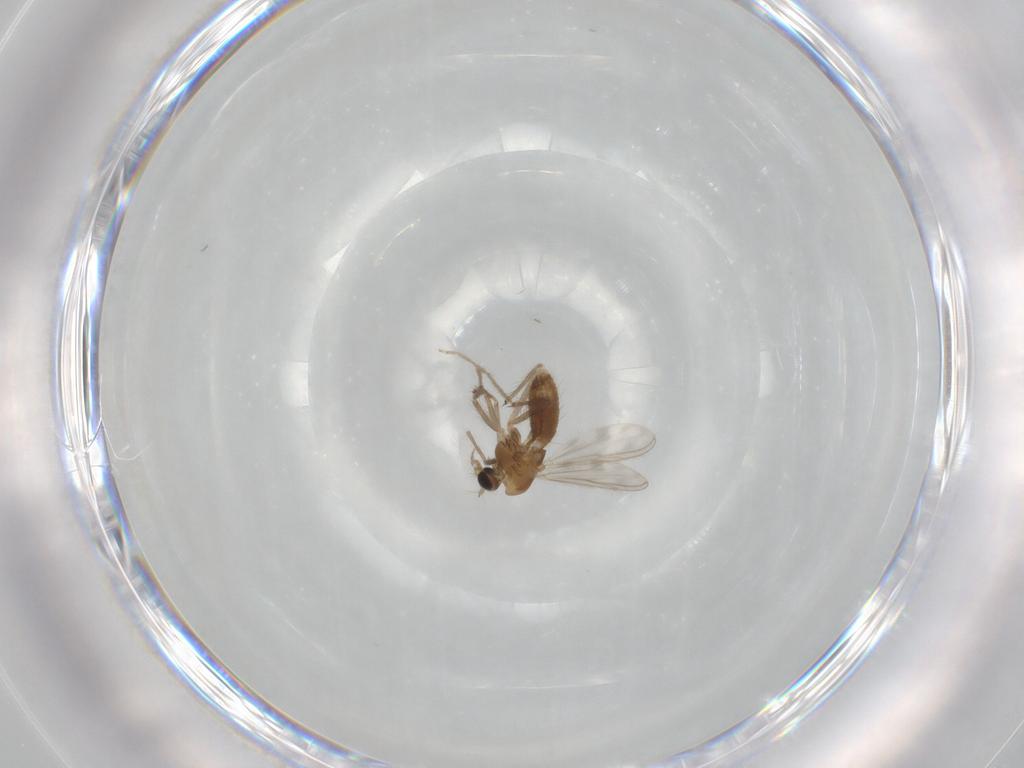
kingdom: Animalia
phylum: Arthropoda
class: Insecta
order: Diptera
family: Chironomidae
